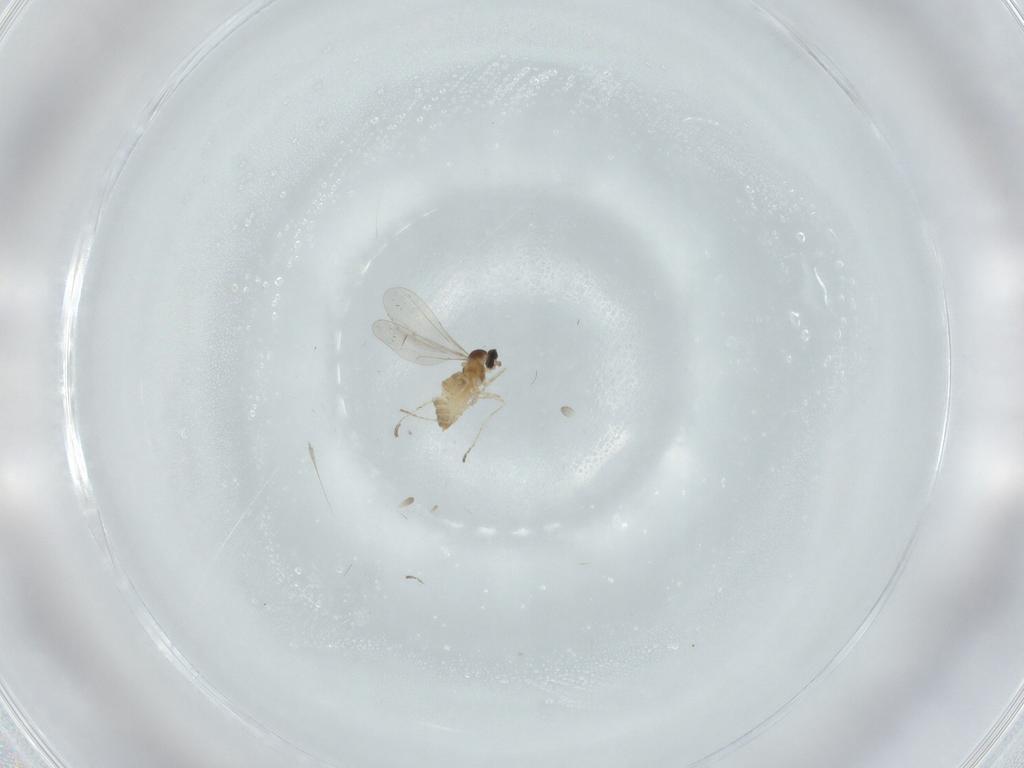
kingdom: Animalia
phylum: Arthropoda
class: Insecta
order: Diptera
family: Cecidomyiidae
